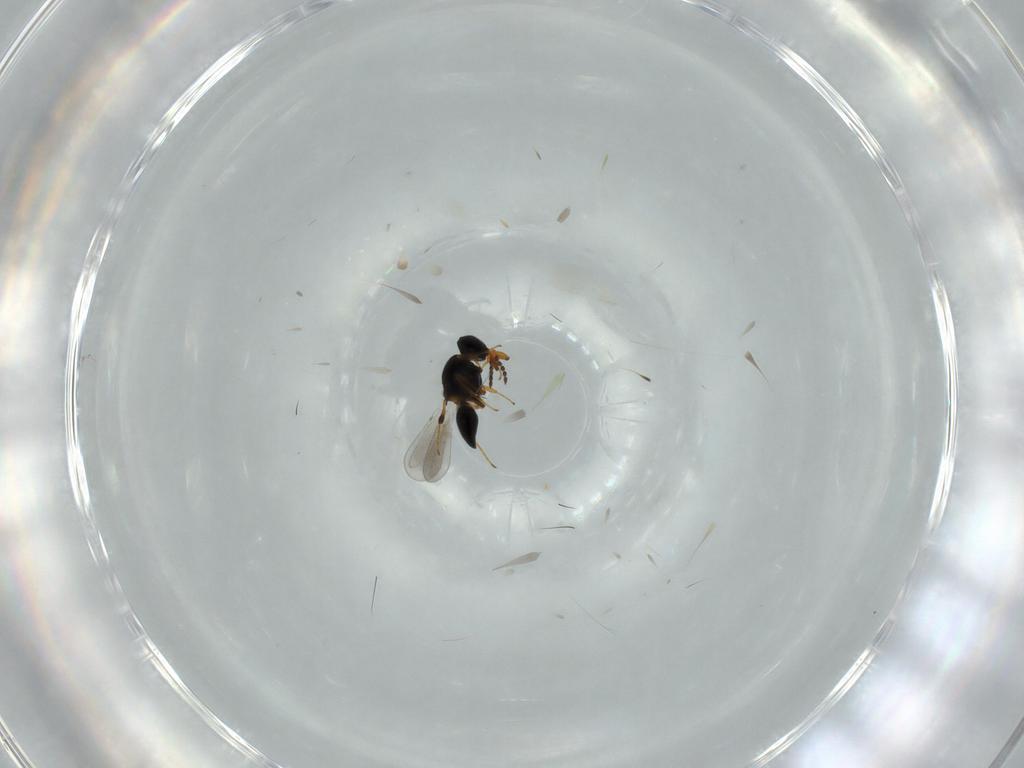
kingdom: Animalia
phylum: Arthropoda
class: Insecta
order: Hymenoptera
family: Platygastridae
